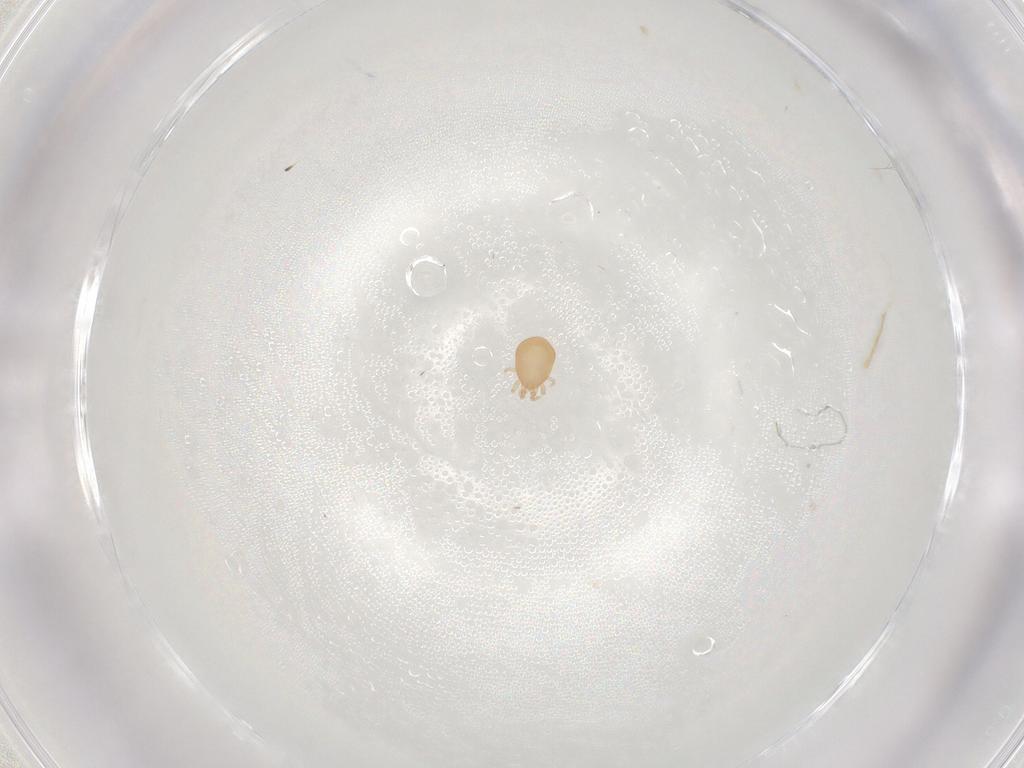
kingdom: Animalia
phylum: Arthropoda
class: Arachnida
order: Mesostigmata
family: Melicharidae
